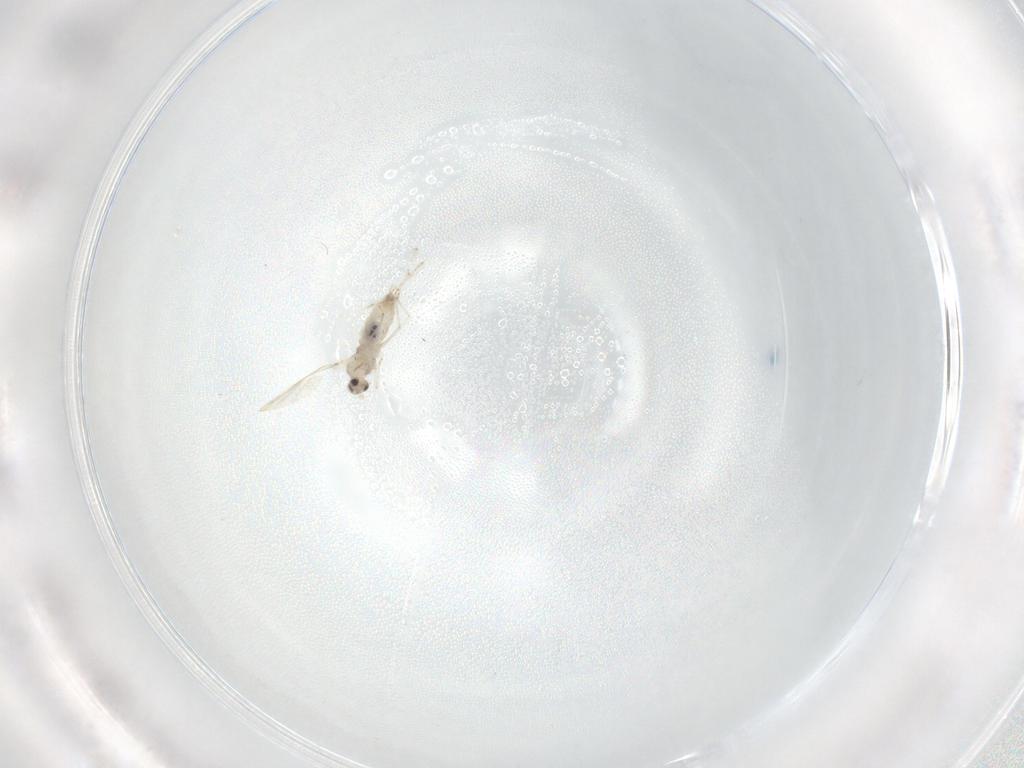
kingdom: Animalia
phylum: Arthropoda
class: Insecta
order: Diptera
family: Cecidomyiidae
